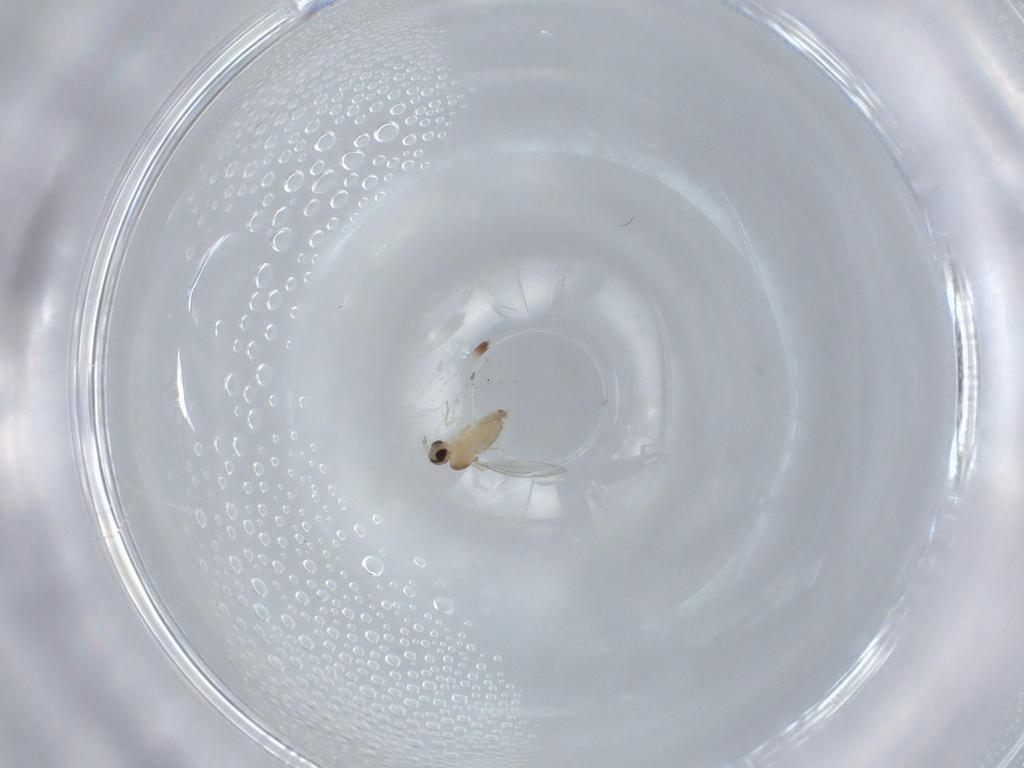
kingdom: Animalia
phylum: Arthropoda
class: Insecta
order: Diptera
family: Cecidomyiidae
